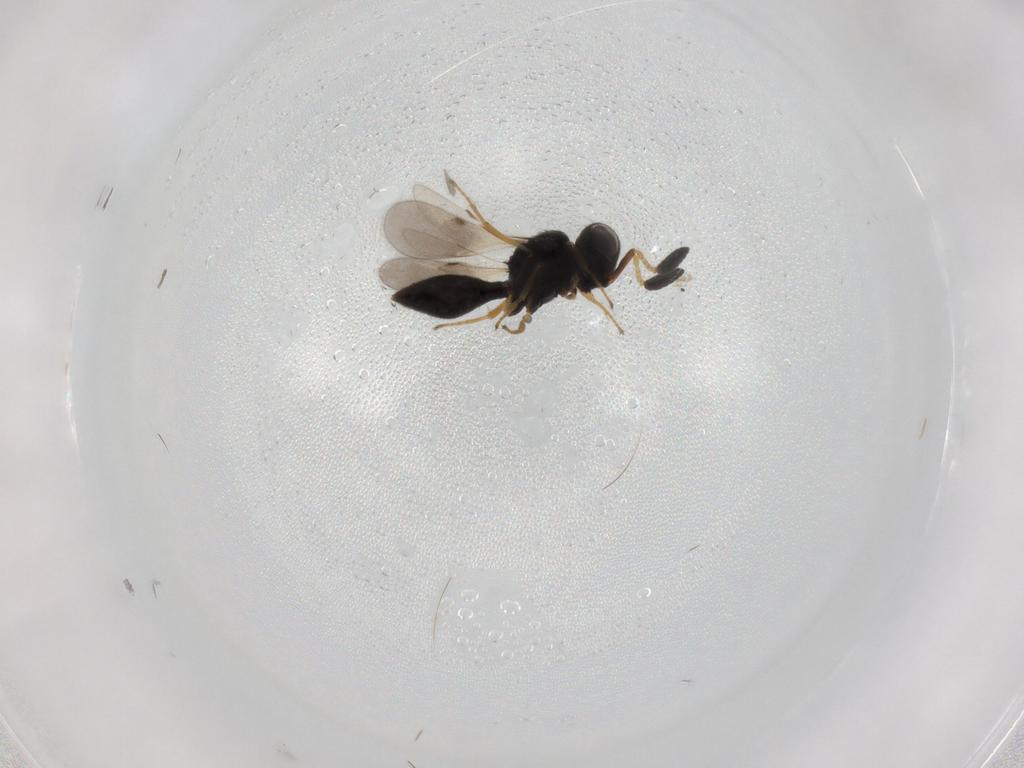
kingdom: Animalia
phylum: Arthropoda
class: Insecta
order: Hymenoptera
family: Scelionidae
